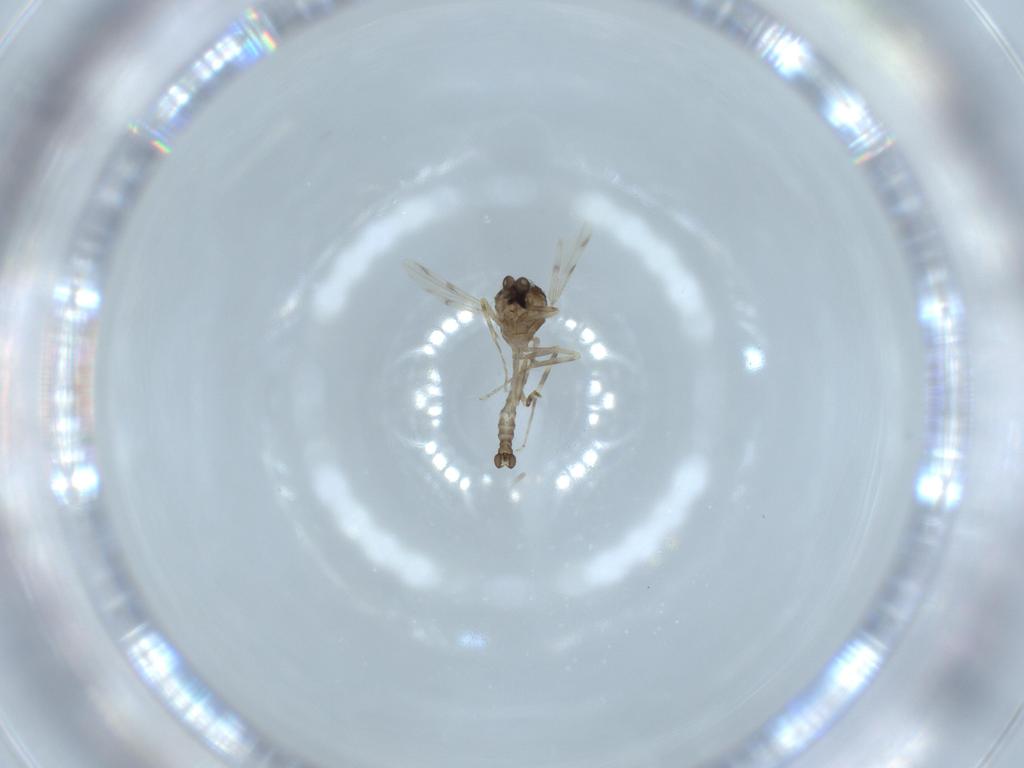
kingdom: Animalia
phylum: Arthropoda
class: Insecta
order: Diptera
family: Ceratopogonidae
